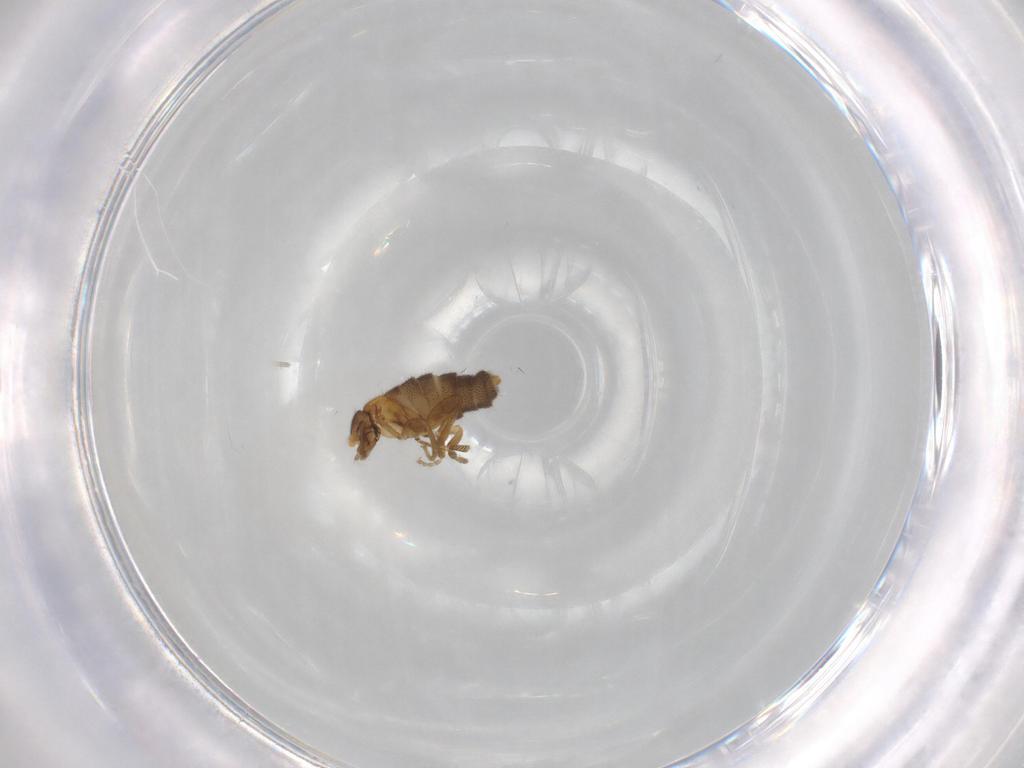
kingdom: Animalia
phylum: Arthropoda
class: Insecta
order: Diptera
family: Phoridae
